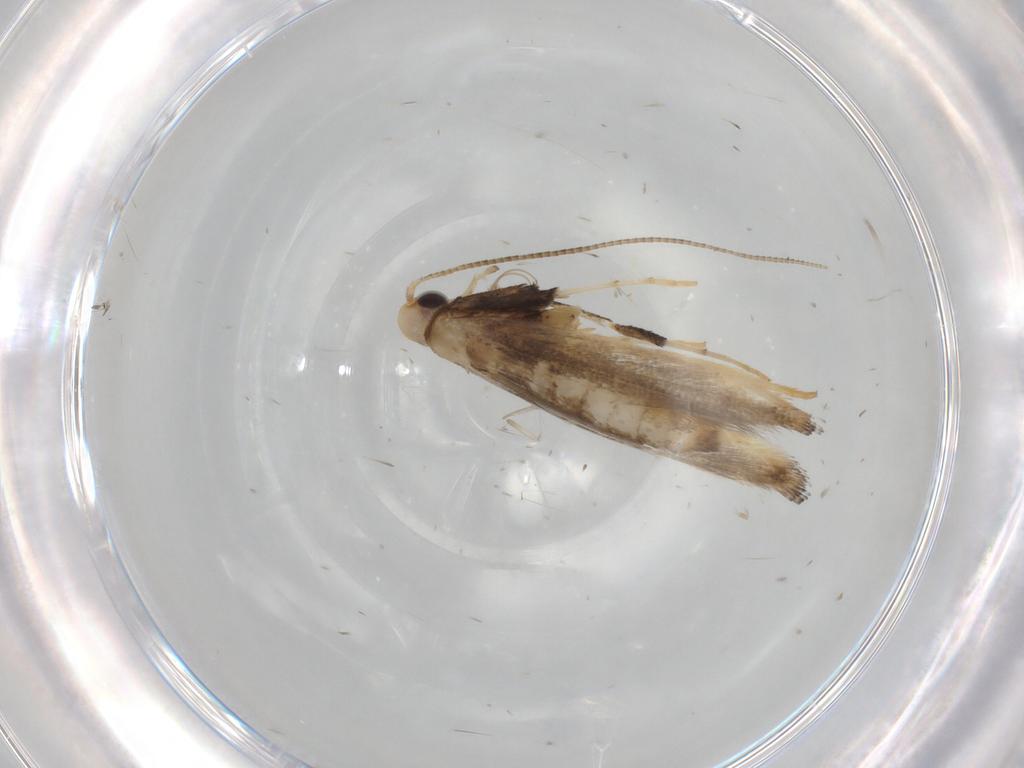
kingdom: Animalia
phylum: Arthropoda
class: Insecta
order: Lepidoptera
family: Gracillariidae
